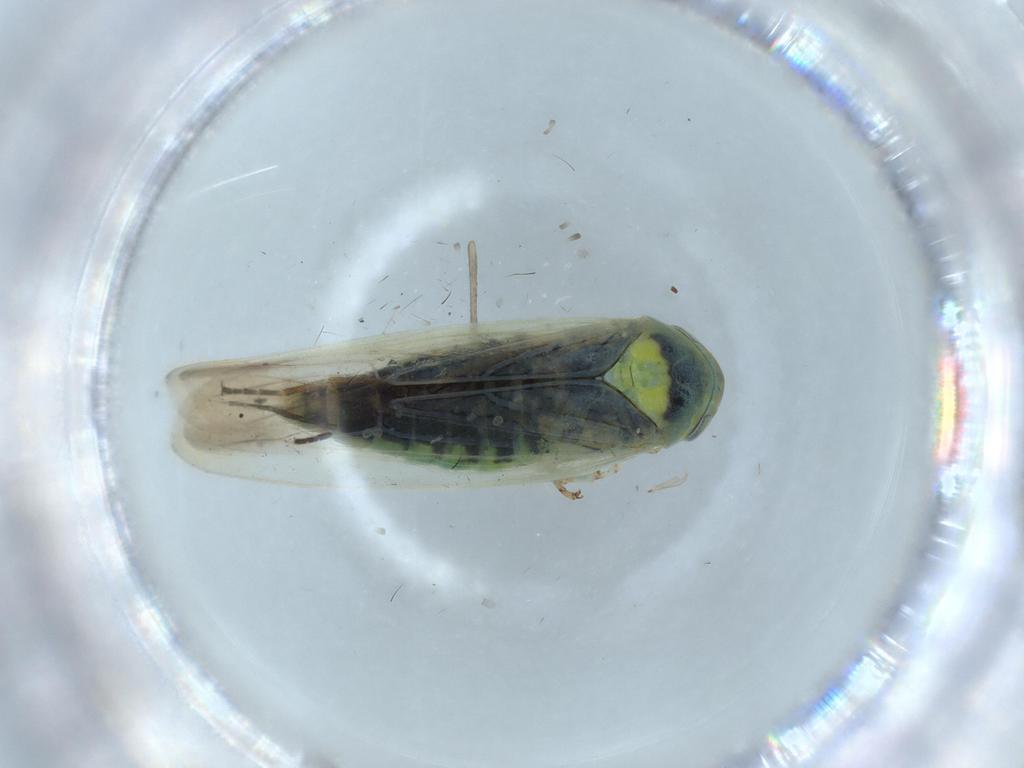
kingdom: Animalia
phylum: Arthropoda
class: Insecta
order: Hemiptera
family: Cicadellidae
